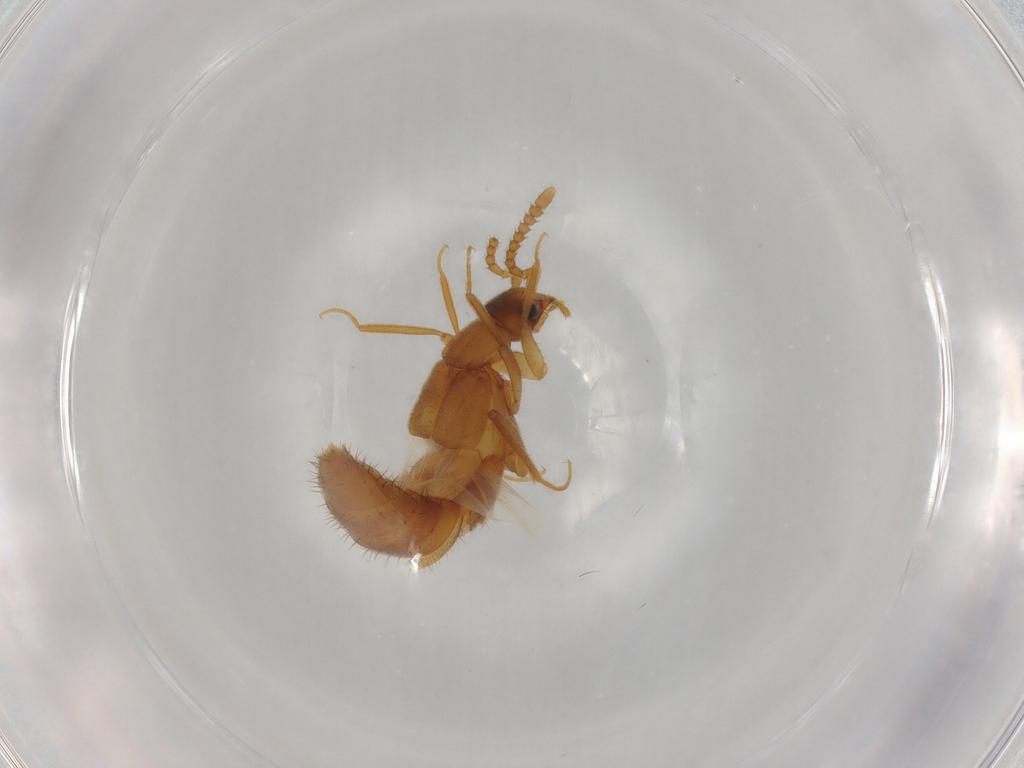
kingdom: Animalia
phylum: Arthropoda
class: Insecta
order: Coleoptera
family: Staphylinidae
